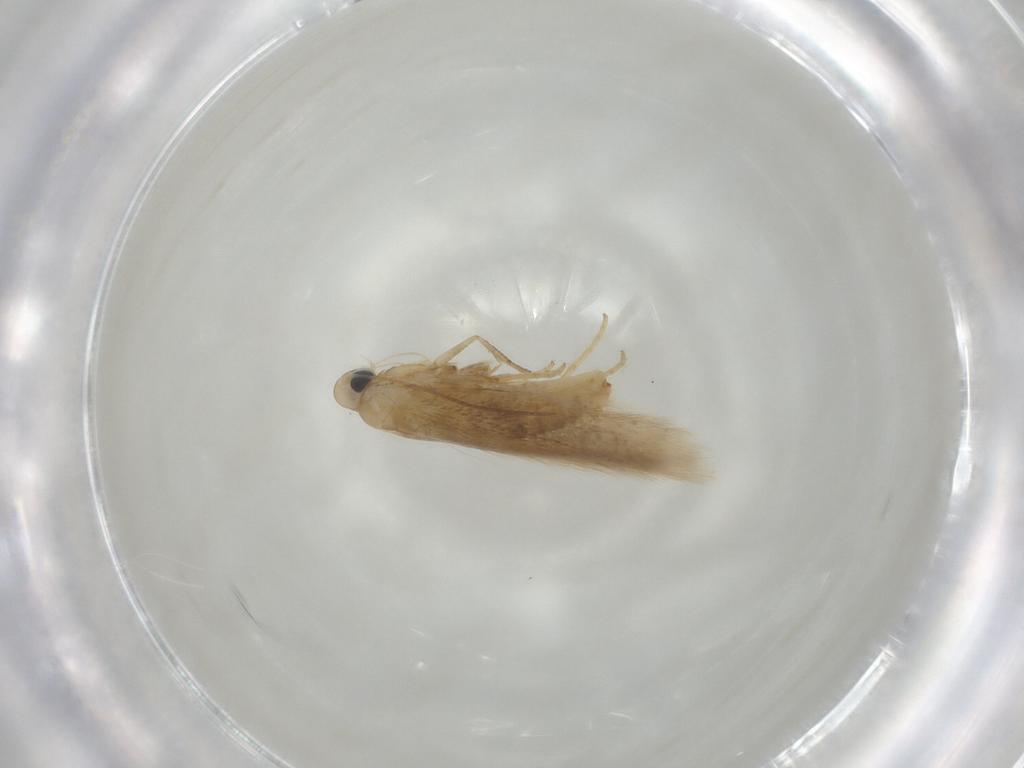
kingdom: Animalia
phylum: Arthropoda
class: Insecta
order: Lepidoptera
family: Tischeriidae
